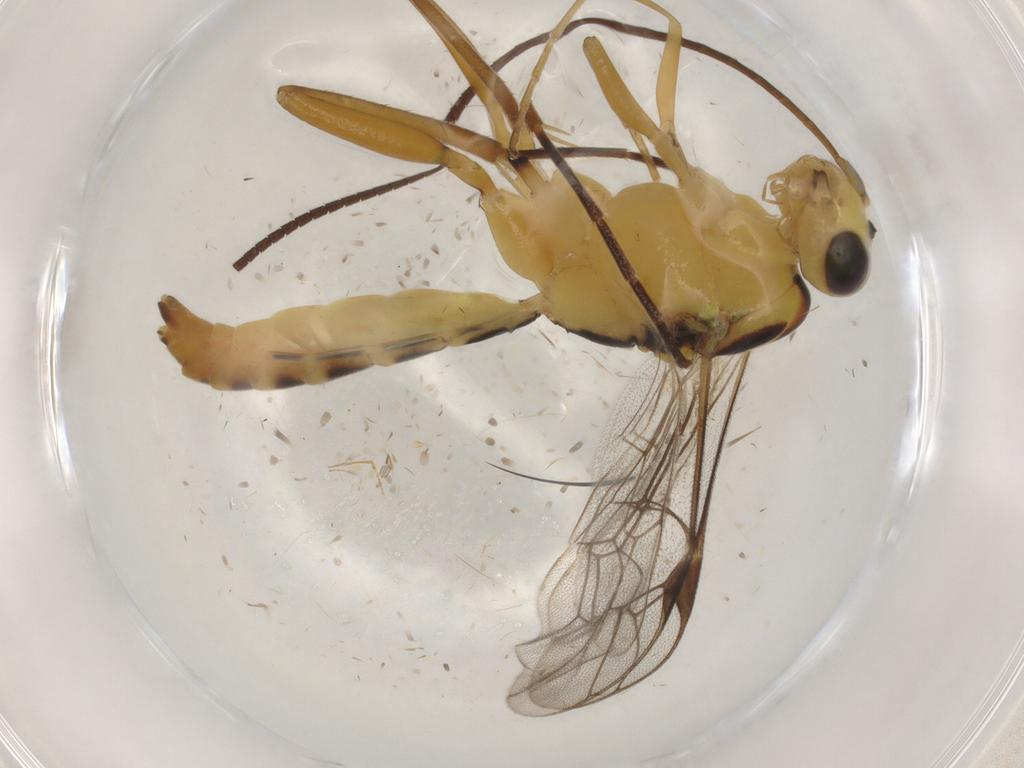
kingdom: Animalia
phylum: Arthropoda
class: Insecta
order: Hymenoptera
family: Ichneumonidae
